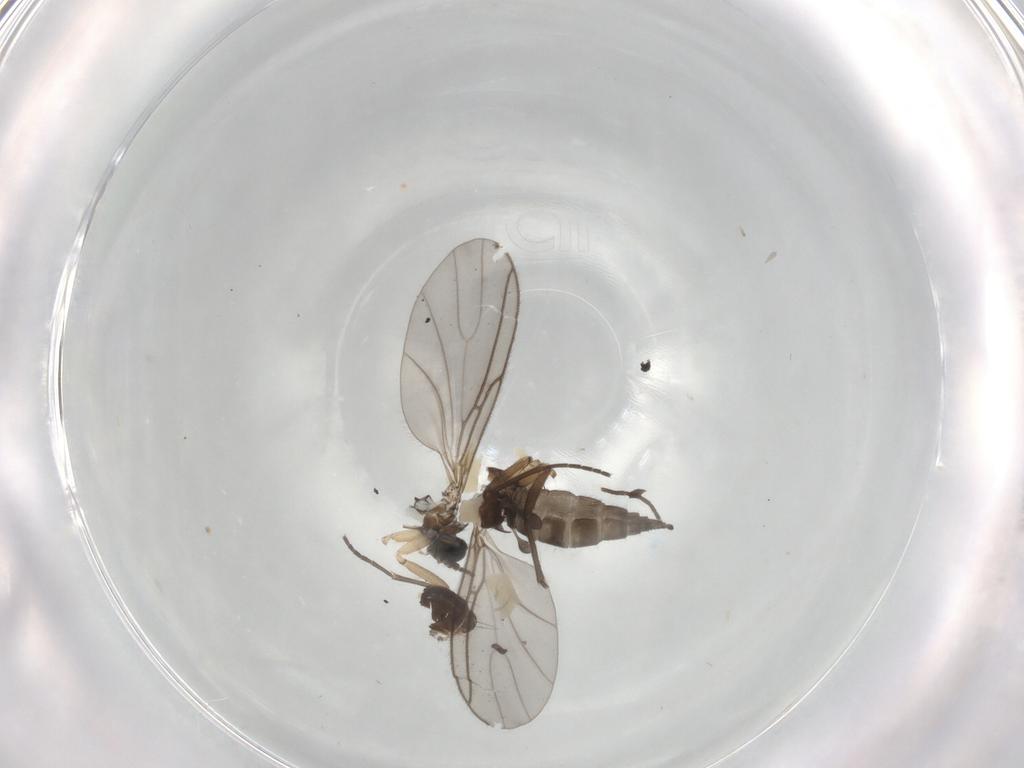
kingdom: Animalia
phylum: Arthropoda
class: Insecta
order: Diptera
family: Sciaridae
